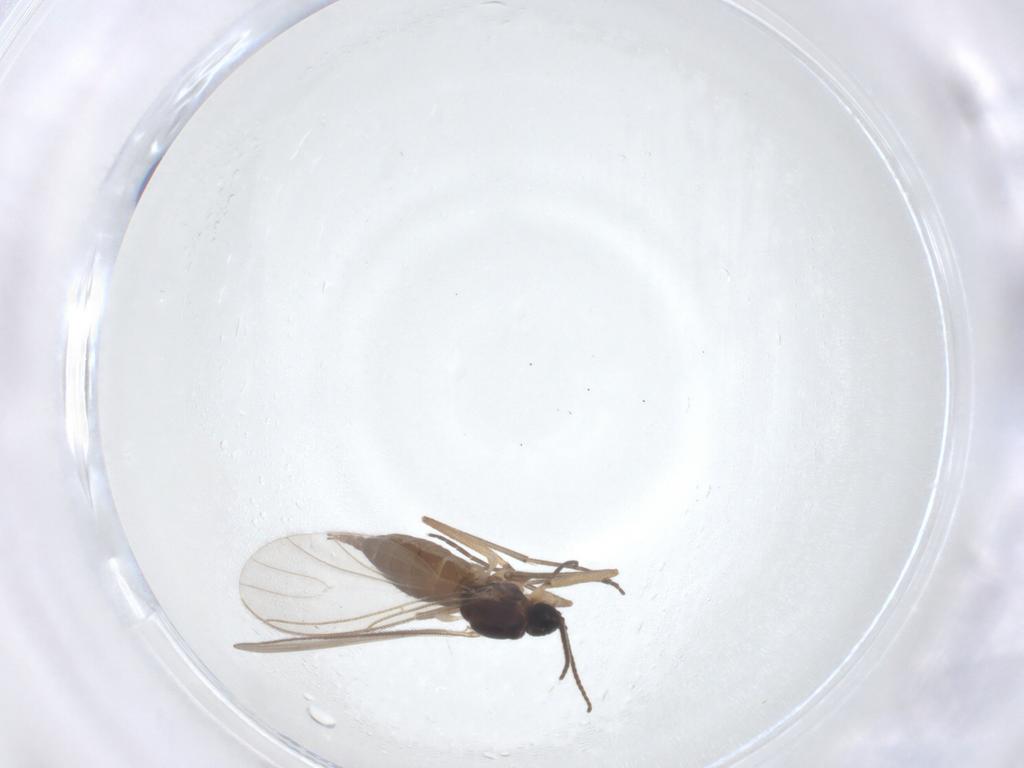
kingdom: Animalia
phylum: Arthropoda
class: Insecta
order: Diptera
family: Sciaridae
